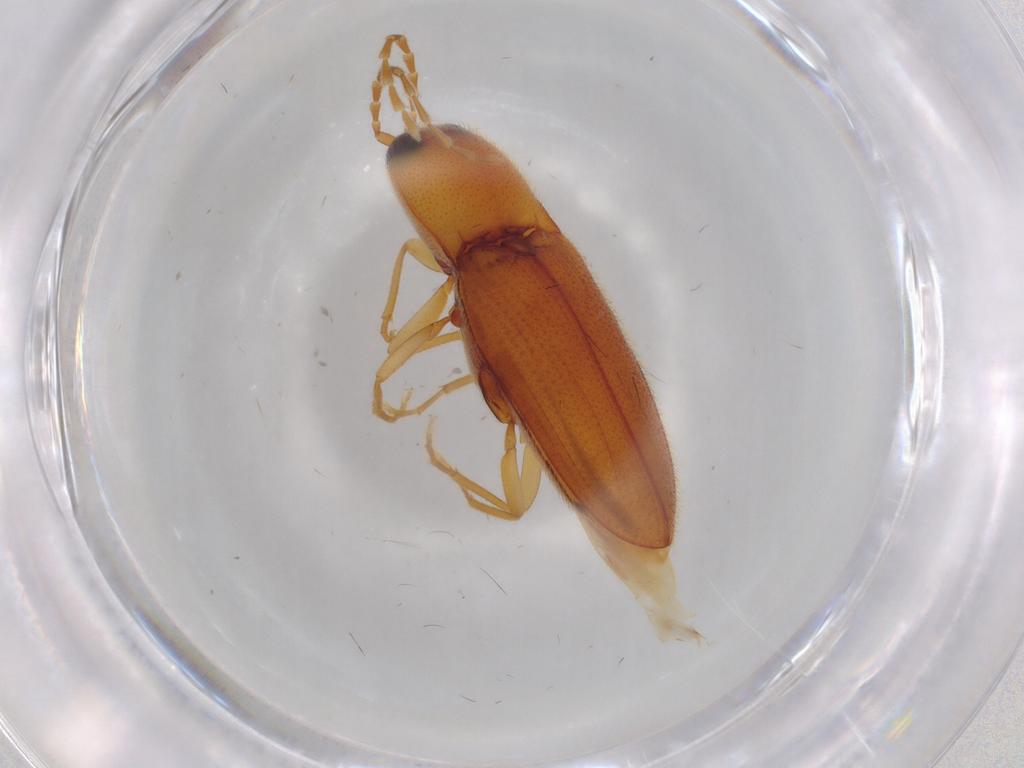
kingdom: Animalia
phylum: Arthropoda
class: Insecta
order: Coleoptera
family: Elateridae
